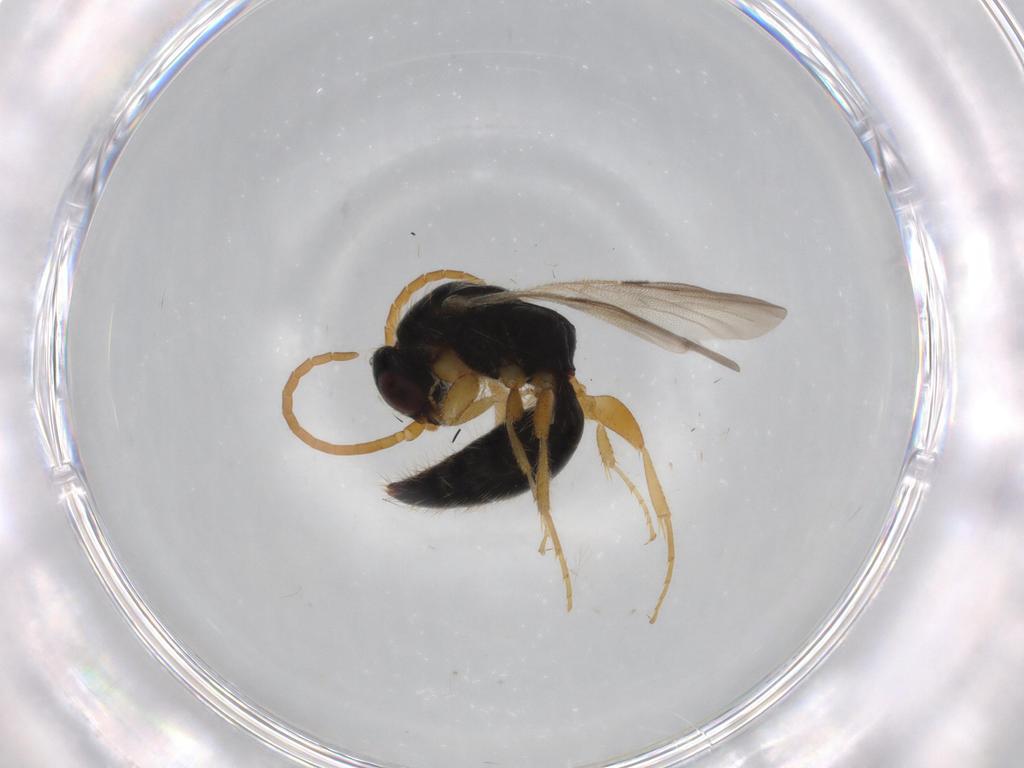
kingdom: Animalia
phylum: Arthropoda
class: Insecta
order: Hymenoptera
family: Bethylidae
